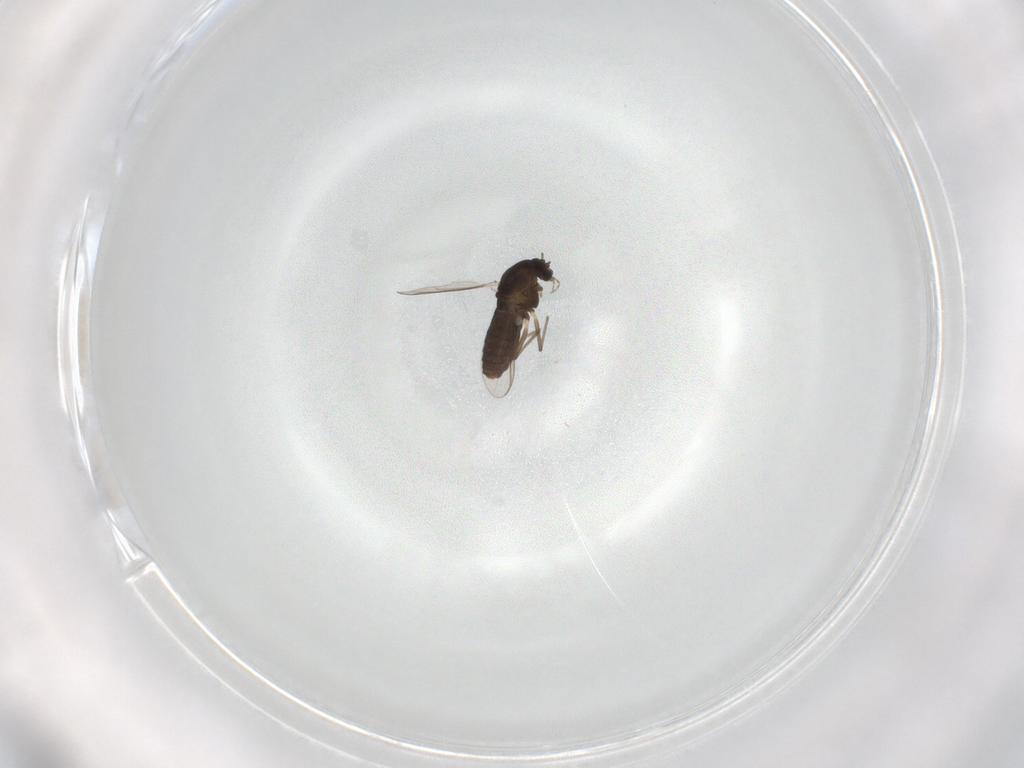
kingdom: Animalia
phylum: Arthropoda
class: Insecta
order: Diptera
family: Chironomidae
